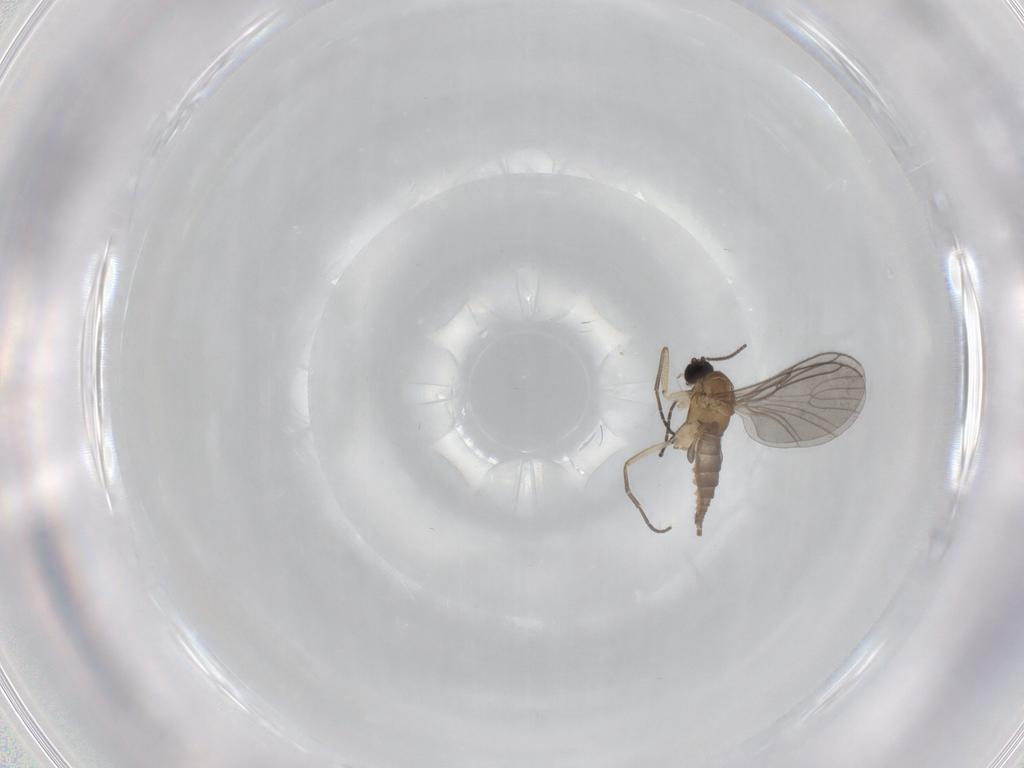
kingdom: Animalia
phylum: Arthropoda
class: Insecta
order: Diptera
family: Sciaridae
